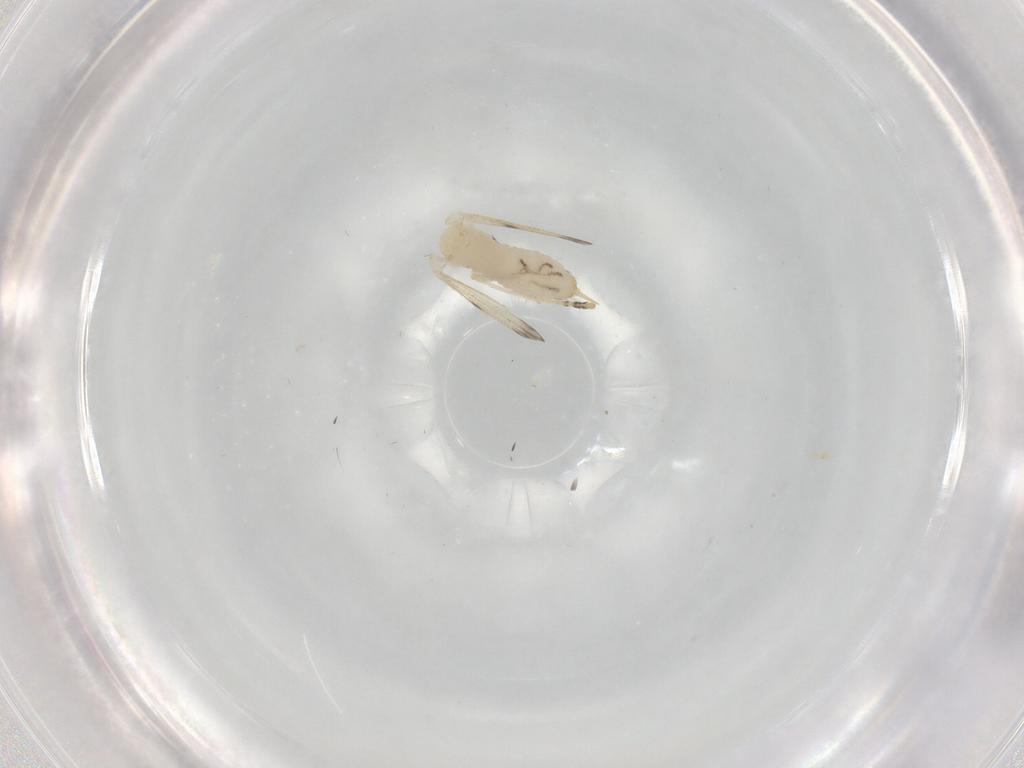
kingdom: Animalia
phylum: Arthropoda
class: Insecta
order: Diptera
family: Psychodidae
